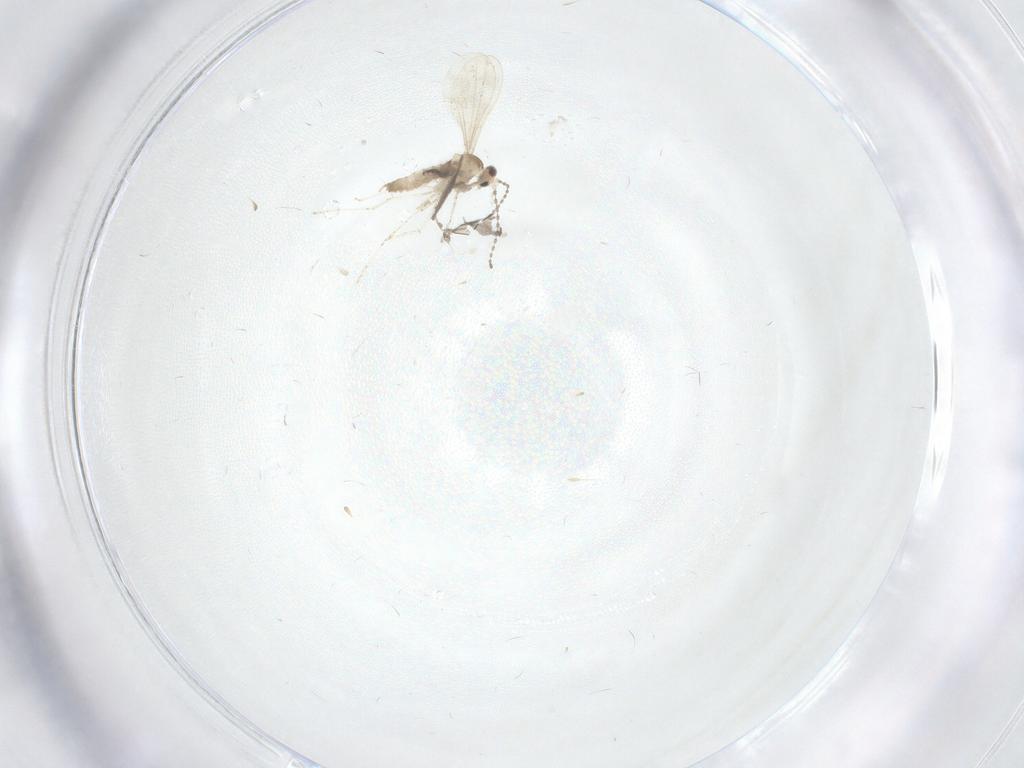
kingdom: Animalia
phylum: Arthropoda
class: Insecta
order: Diptera
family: Cecidomyiidae
